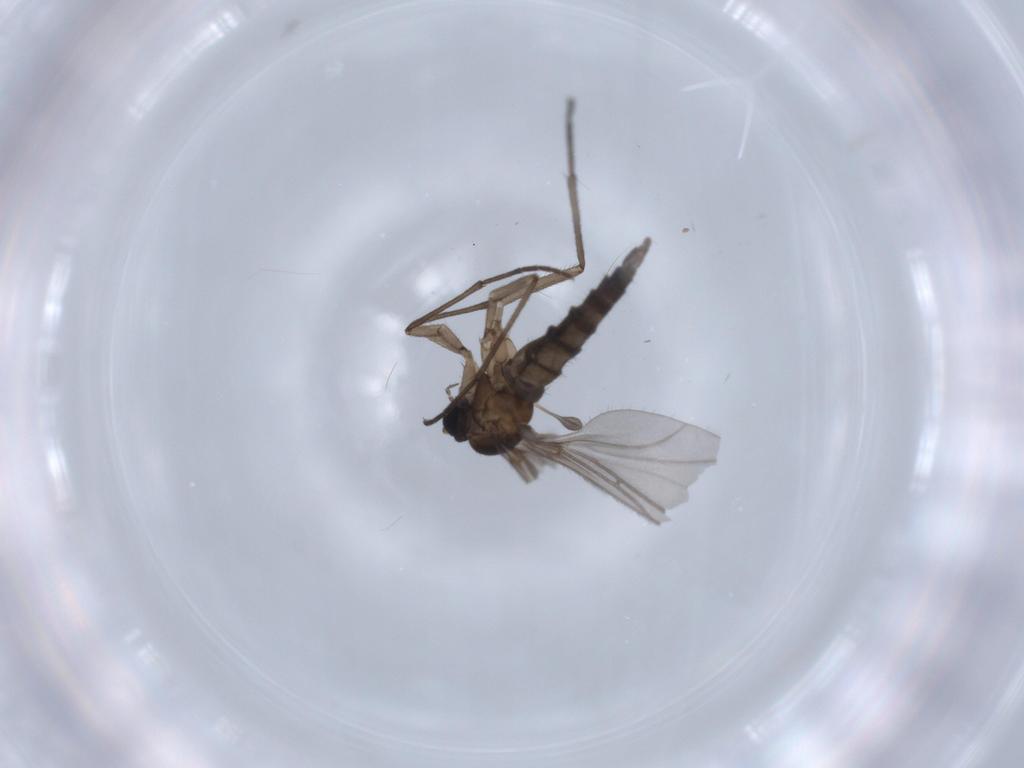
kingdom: Animalia
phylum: Arthropoda
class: Insecta
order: Diptera
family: Sciaridae
